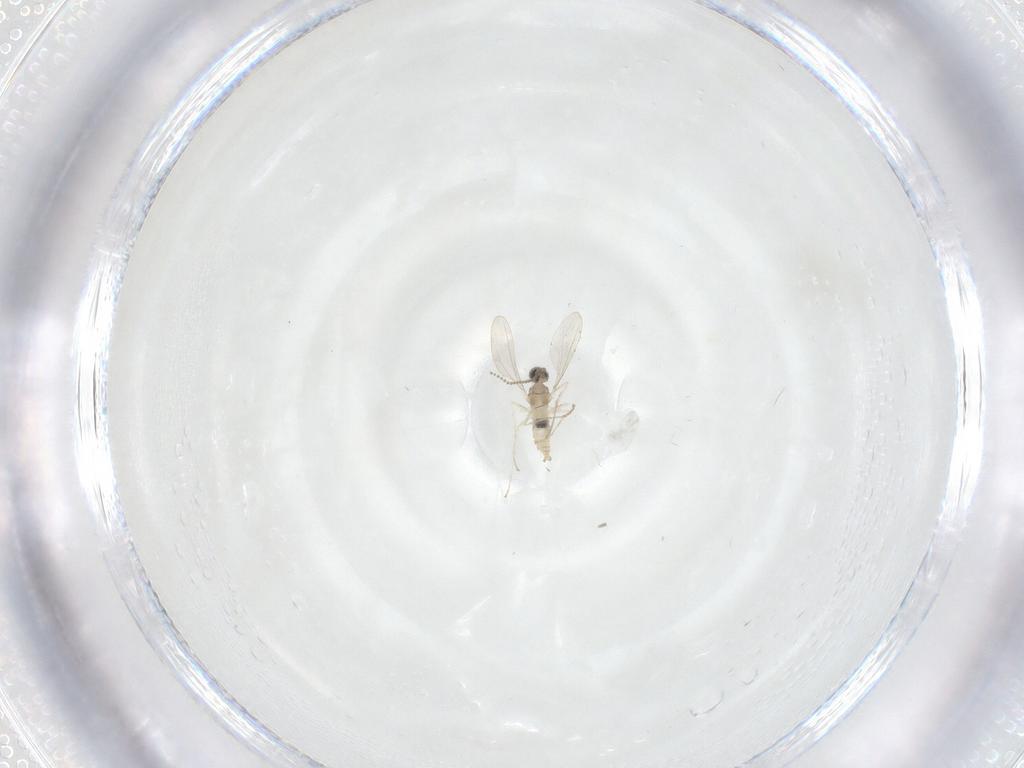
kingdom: Animalia
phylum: Arthropoda
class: Insecta
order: Diptera
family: Cecidomyiidae
